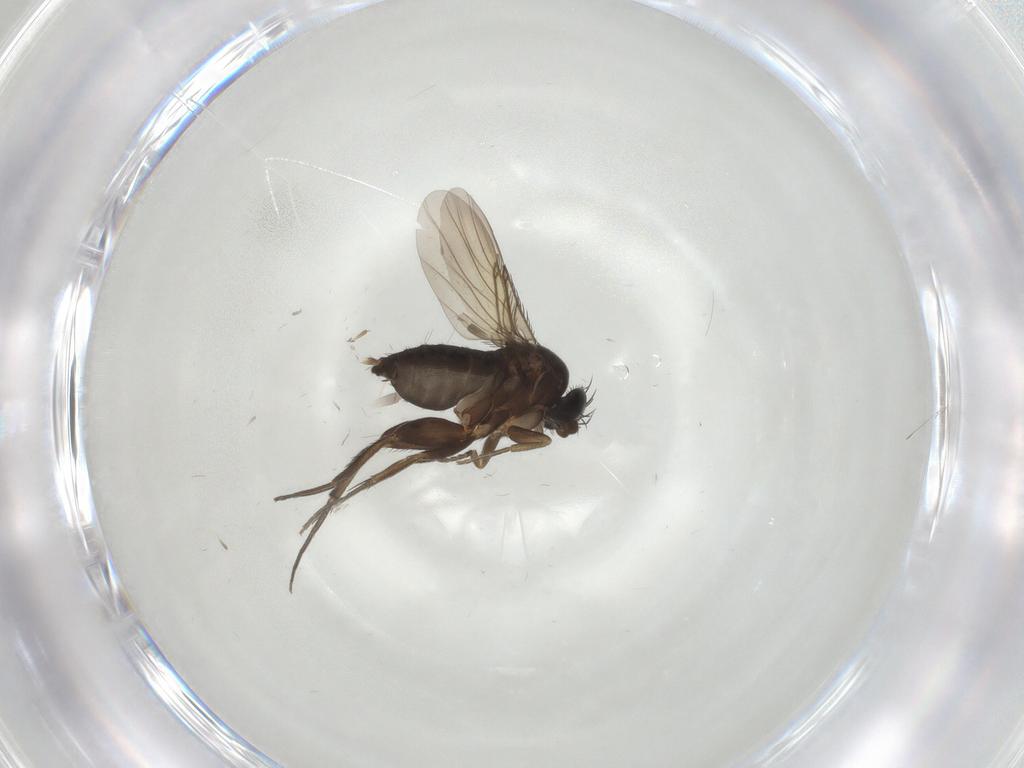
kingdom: Animalia
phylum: Arthropoda
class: Insecta
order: Diptera
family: Phoridae
